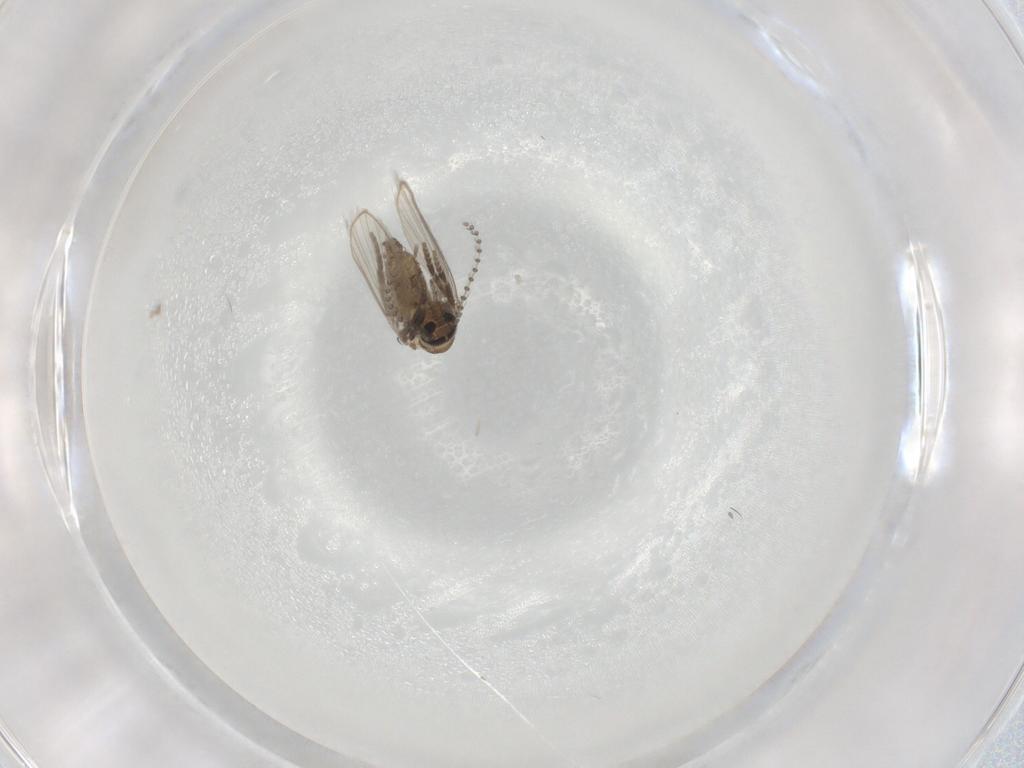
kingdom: Animalia
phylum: Arthropoda
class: Insecta
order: Diptera
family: Psychodidae
